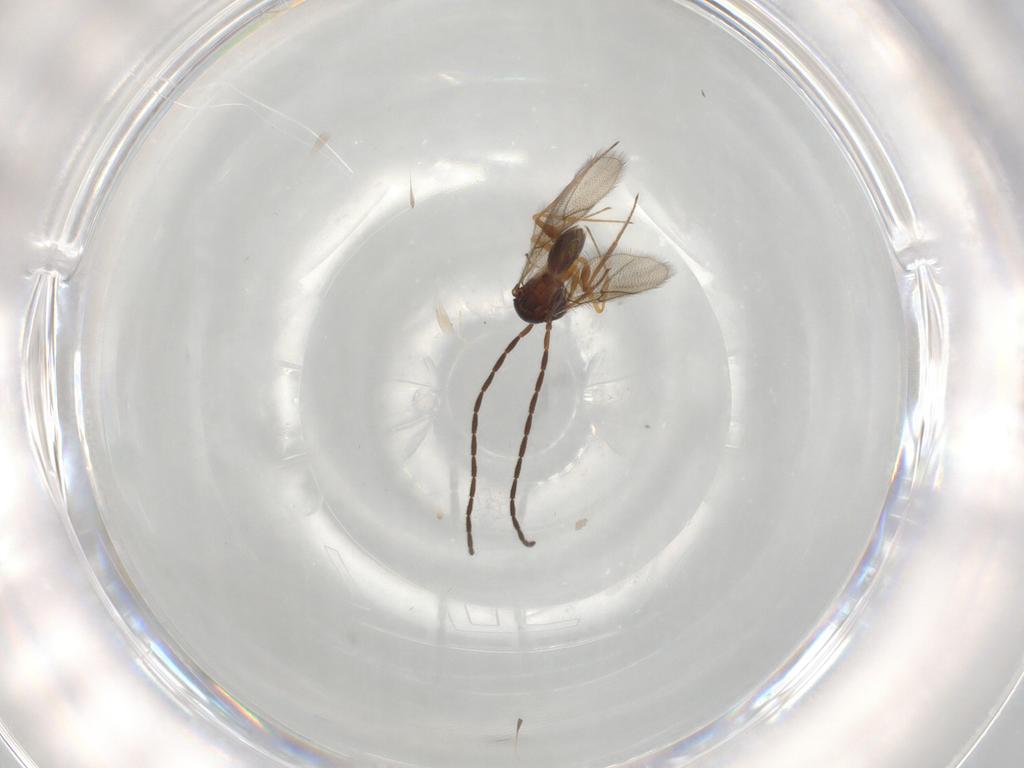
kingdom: Animalia
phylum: Arthropoda
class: Insecta
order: Hymenoptera
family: Figitidae
